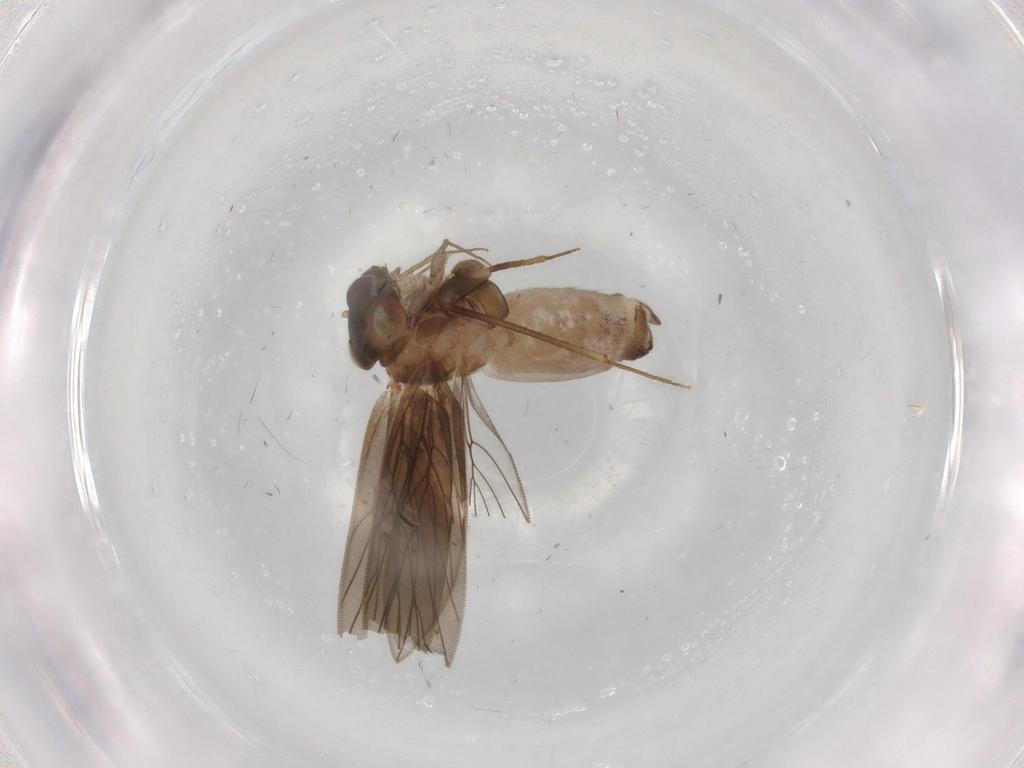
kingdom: Animalia
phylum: Arthropoda
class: Insecta
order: Psocodea
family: Lepidopsocidae
